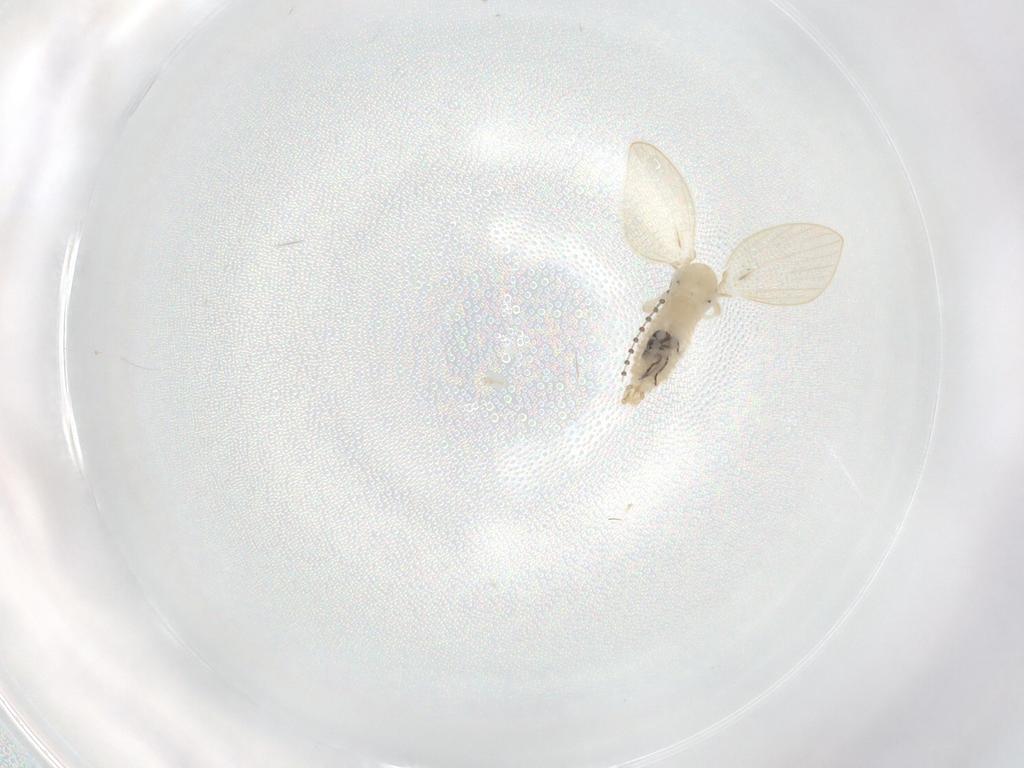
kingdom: Animalia
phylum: Arthropoda
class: Insecta
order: Diptera
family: Psychodidae
